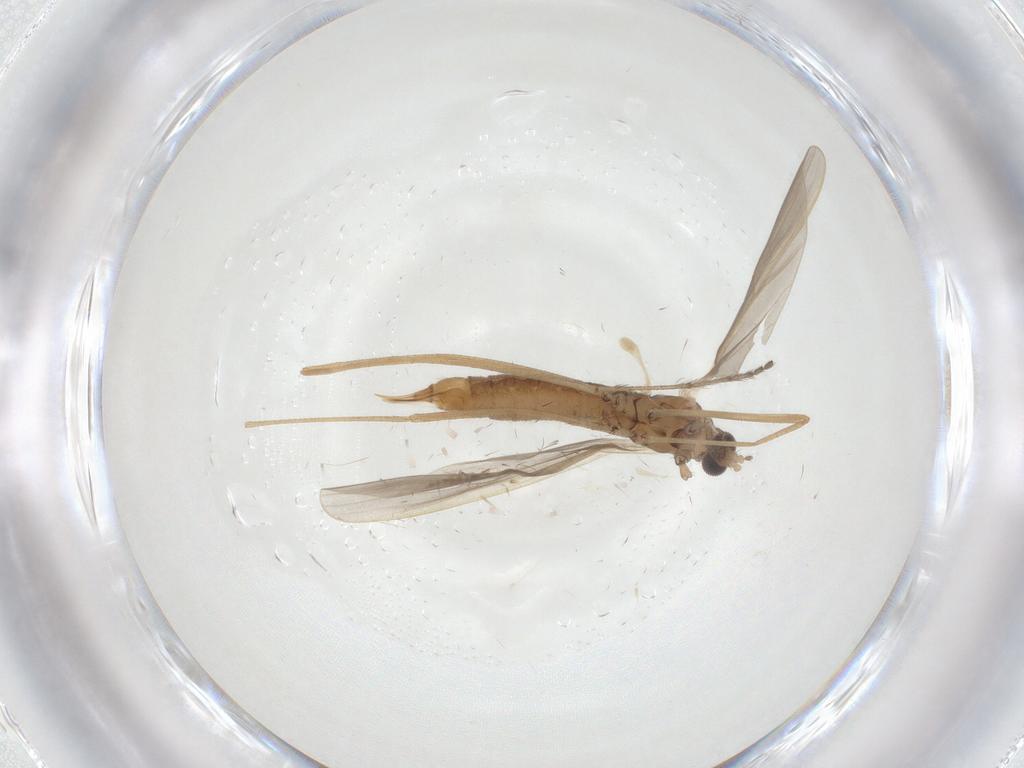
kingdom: Animalia
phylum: Arthropoda
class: Insecta
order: Diptera
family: Limoniidae
